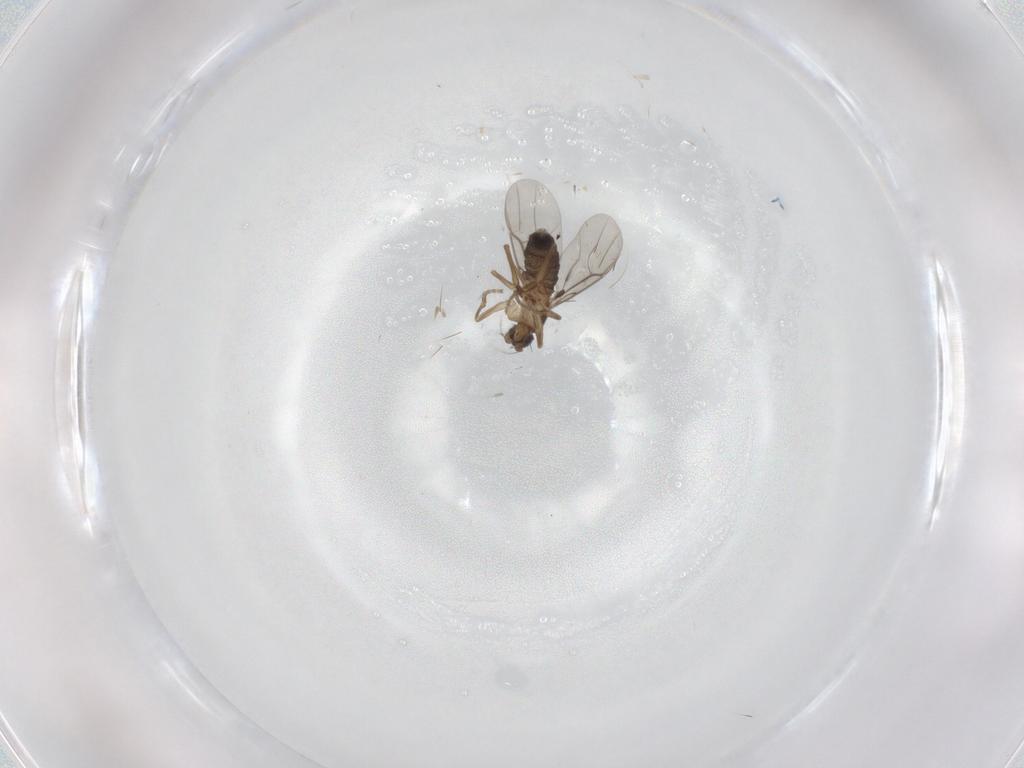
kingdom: Animalia
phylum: Arthropoda
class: Insecta
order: Diptera
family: Phoridae
